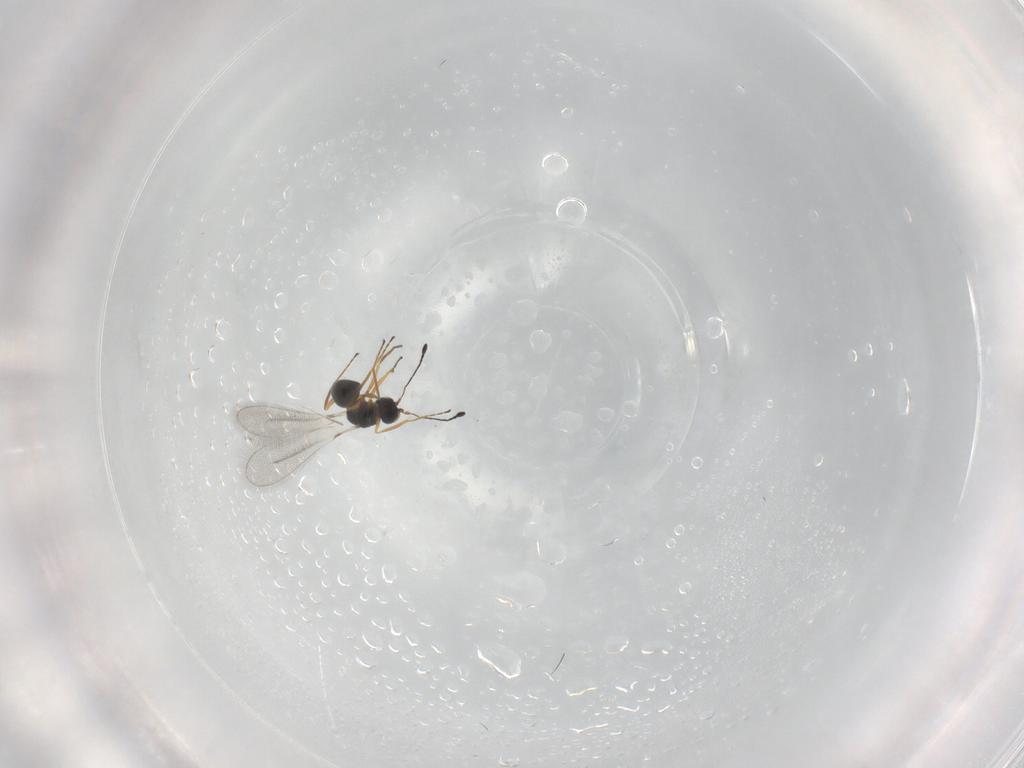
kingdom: Animalia
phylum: Arthropoda
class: Insecta
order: Hymenoptera
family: Mymaridae
